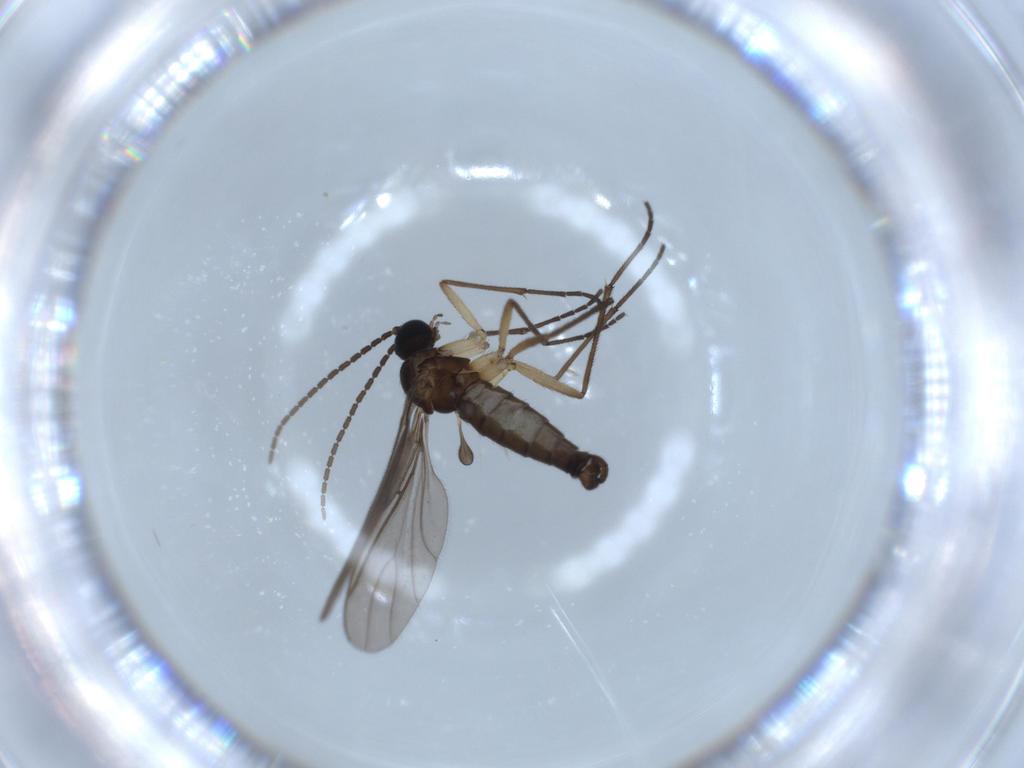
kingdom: Animalia
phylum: Arthropoda
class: Insecta
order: Diptera
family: Sciaridae
